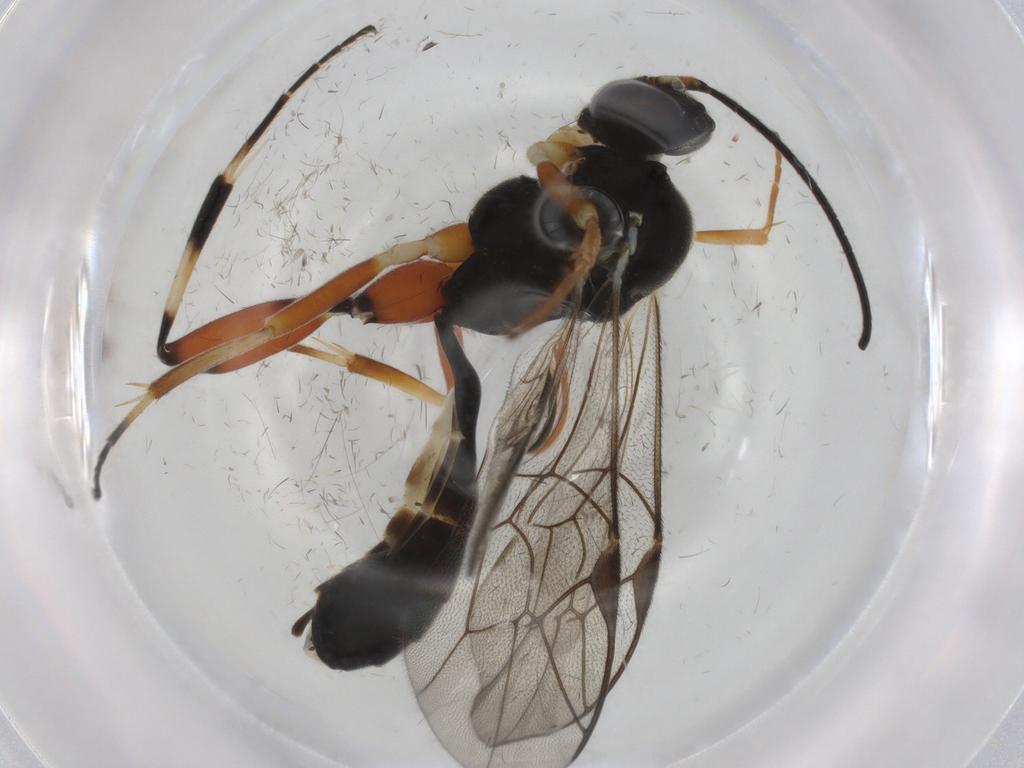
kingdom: Animalia
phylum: Arthropoda
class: Insecta
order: Hymenoptera
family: Ichneumonidae
